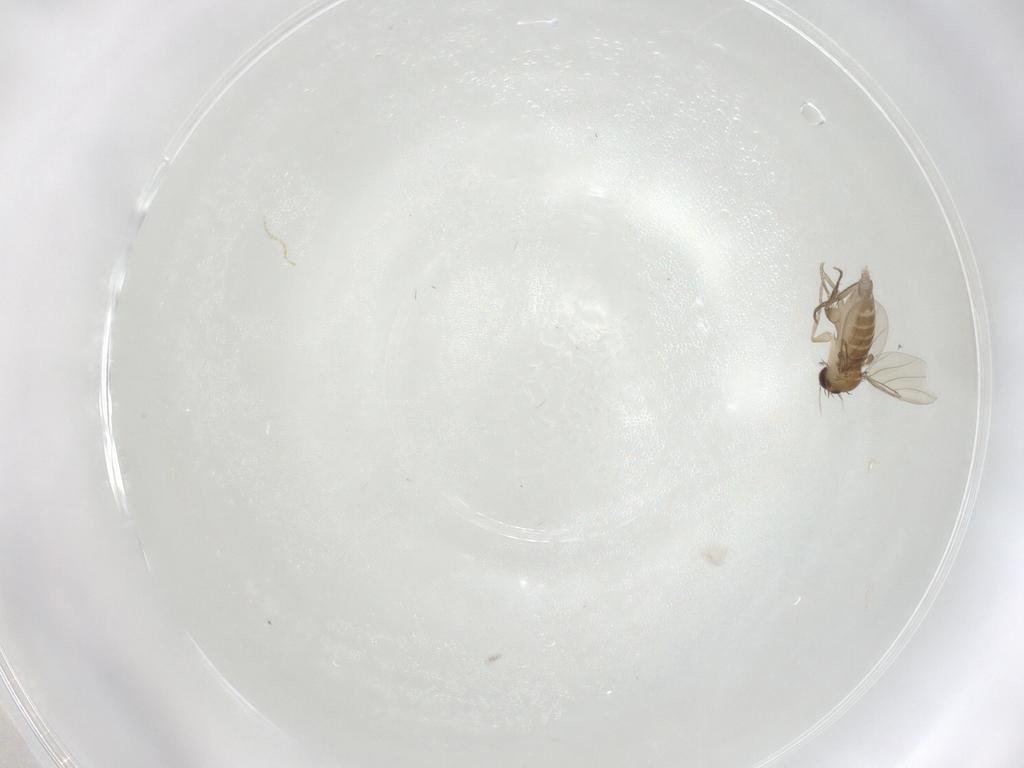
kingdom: Animalia
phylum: Arthropoda
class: Insecta
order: Diptera
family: Phoridae
